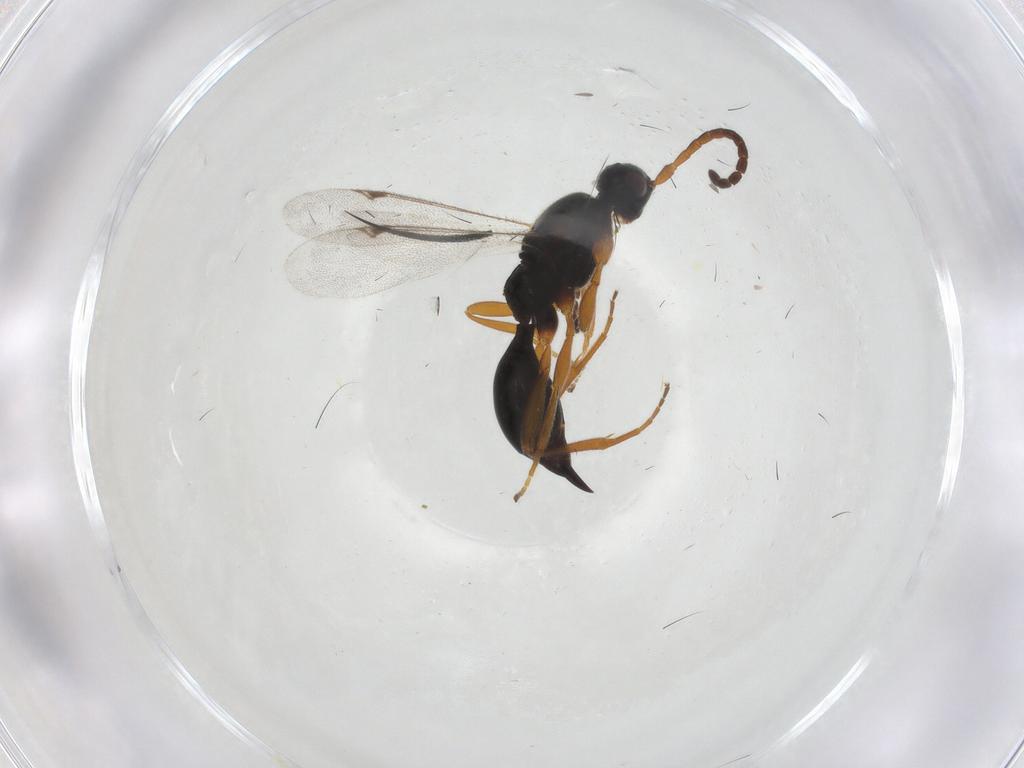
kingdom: Animalia
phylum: Arthropoda
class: Insecta
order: Hymenoptera
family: Proctotrupidae
